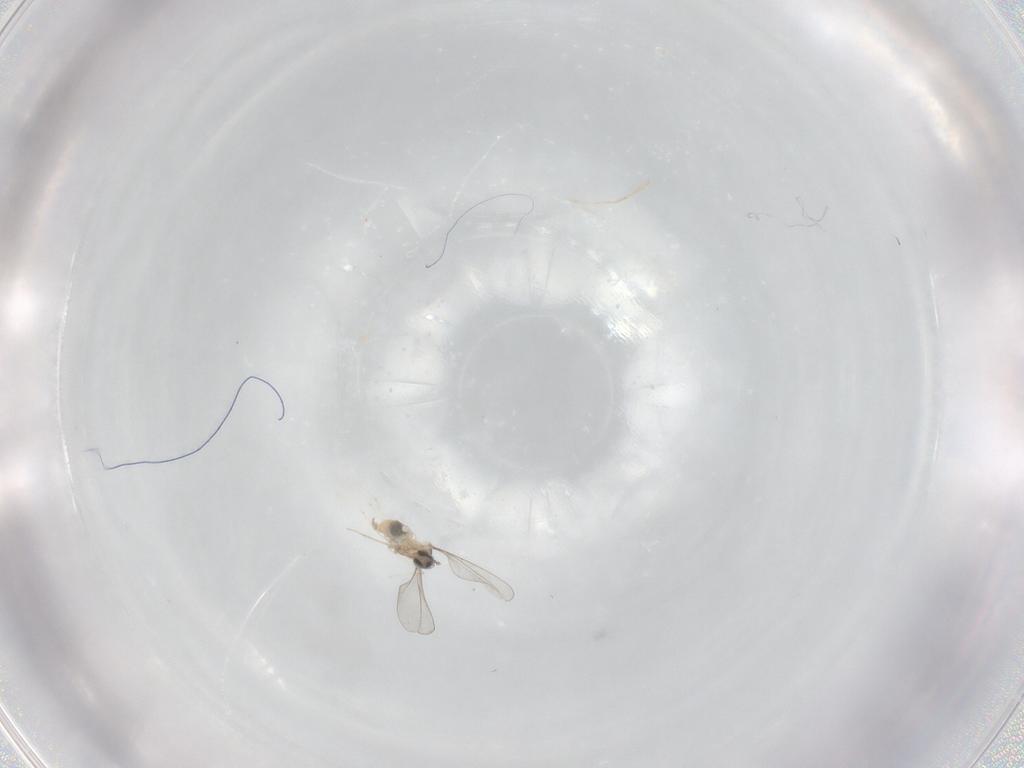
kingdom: Animalia
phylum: Arthropoda
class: Insecta
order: Diptera
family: Cecidomyiidae
